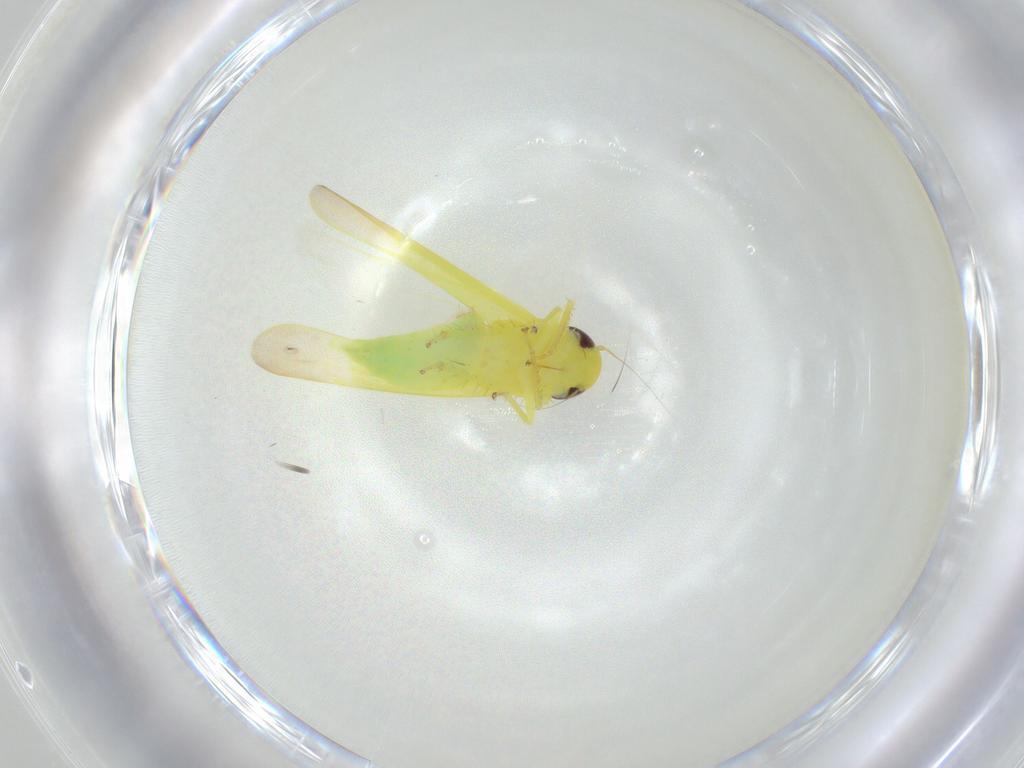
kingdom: Animalia
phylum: Arthropoda
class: Insecta
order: Hemiptera
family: Cicadellidae
